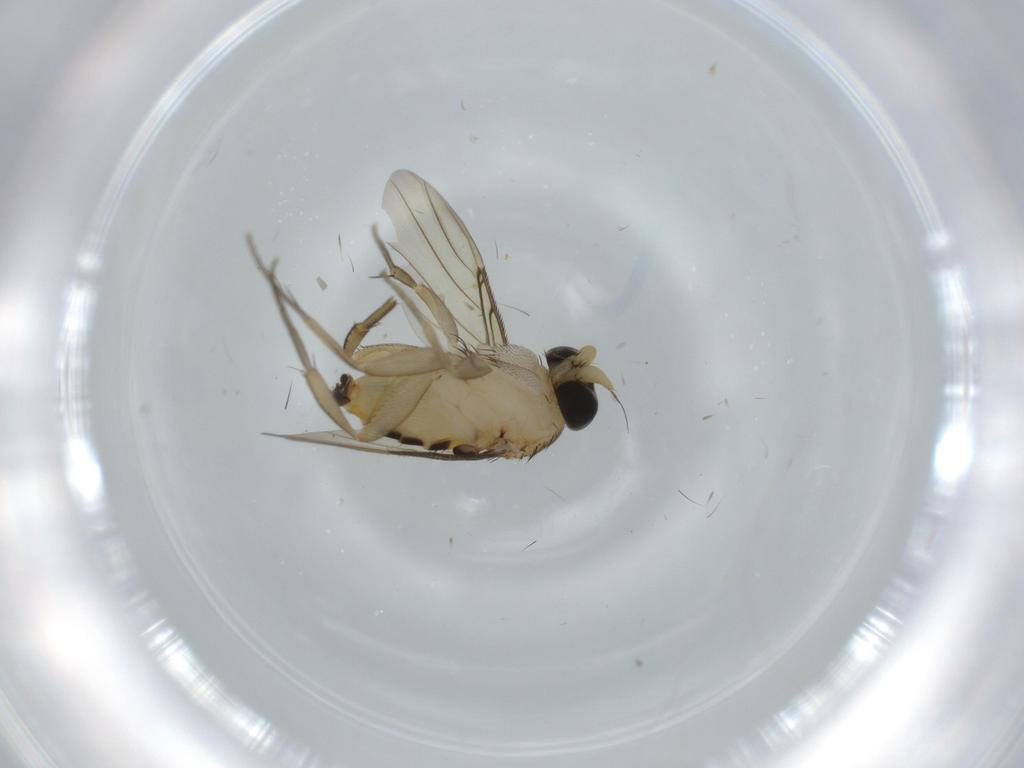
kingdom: Animalia
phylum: Arthropoda
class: Insecta
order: Diptera
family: Phoridae
